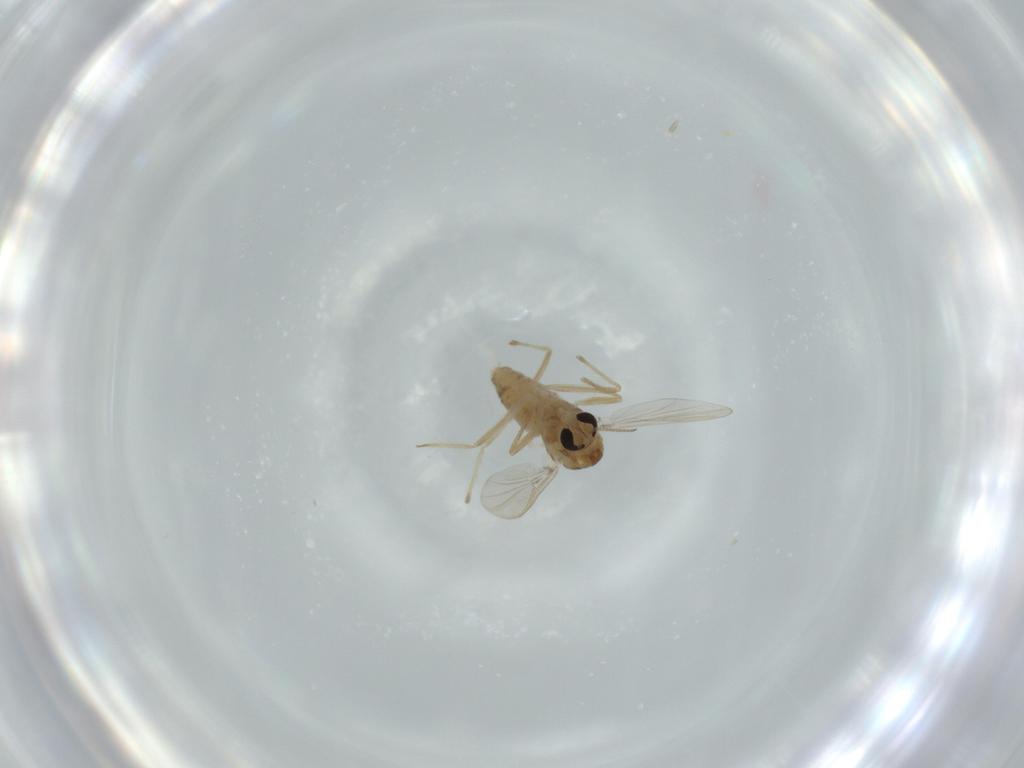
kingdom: Animalia
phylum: Arthropoda
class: Insecta
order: Diptera
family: Chironomidae
